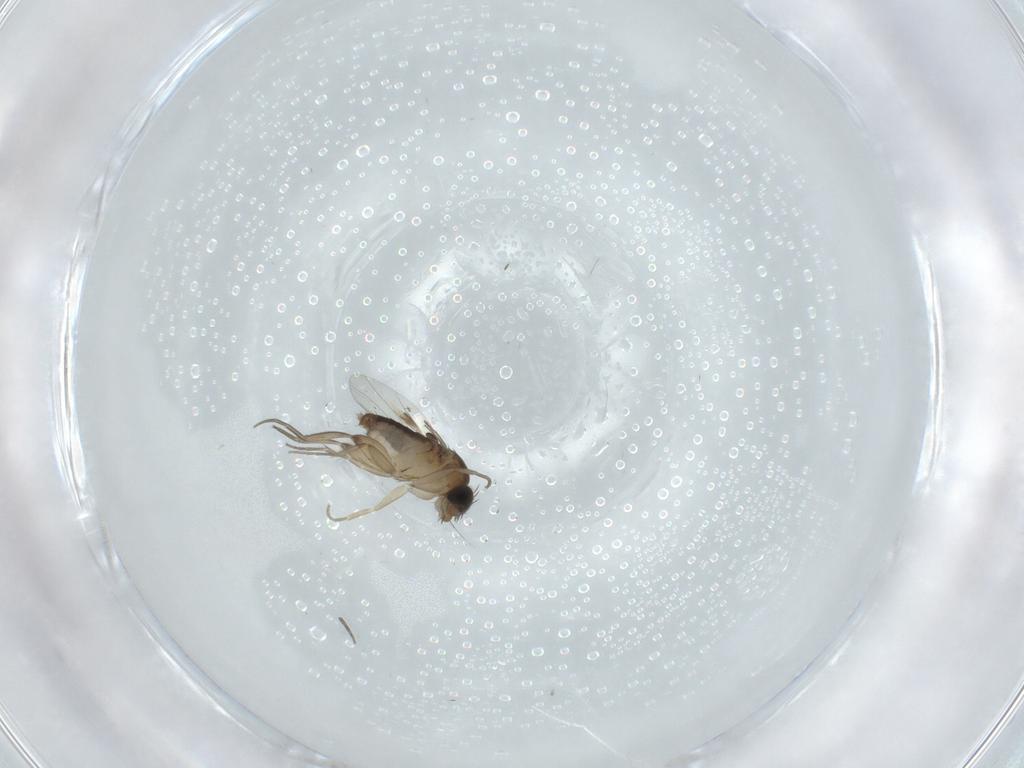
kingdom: Animalia
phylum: Arthropoda
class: Insecta
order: Diptera
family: Phoridae
